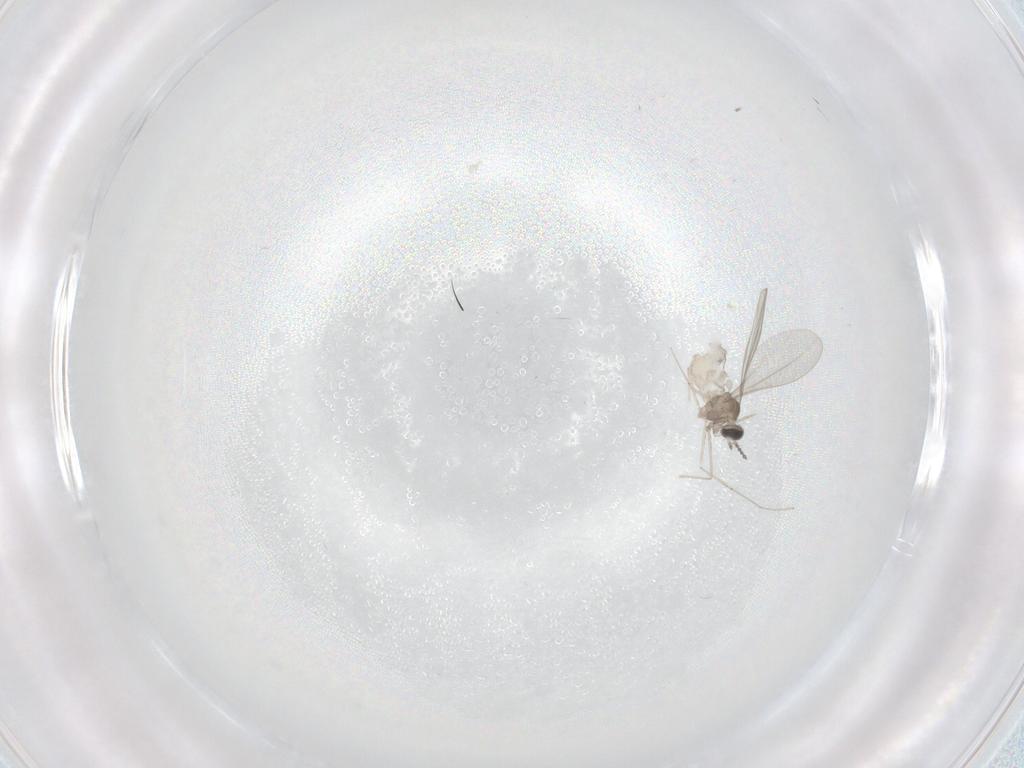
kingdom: Animalia
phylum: Arthropoda
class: Insecta
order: Diptera
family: Cecidomyiidae
